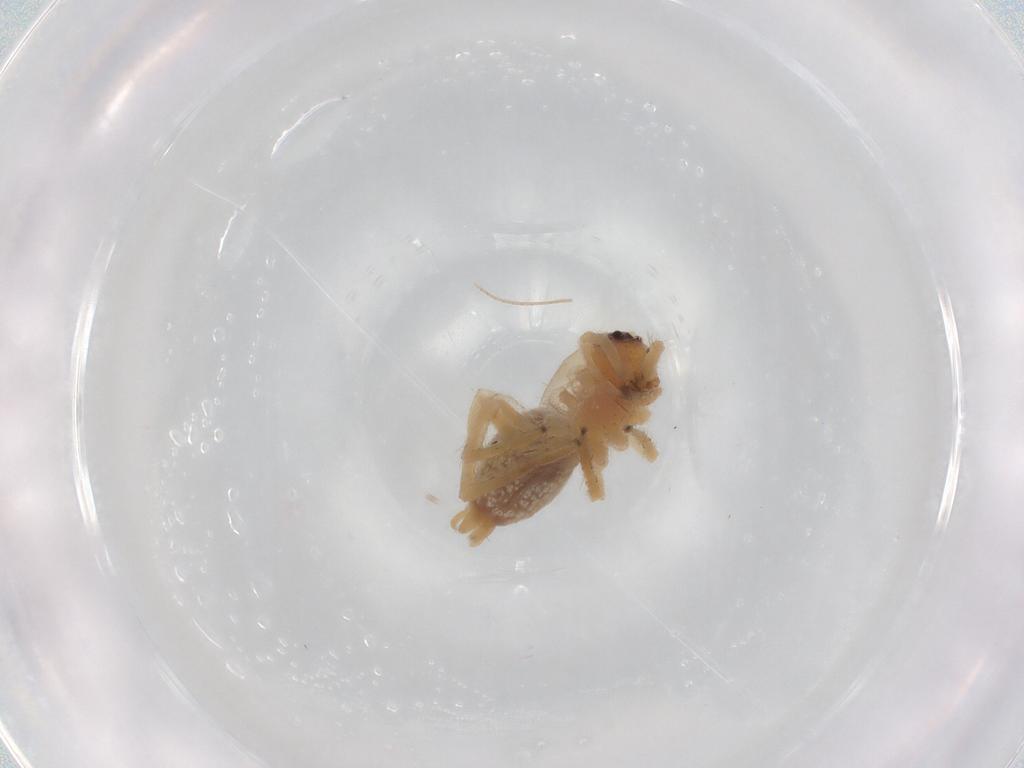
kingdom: Animalia
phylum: Arthropoda
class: Arachnida
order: Araneae
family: Cheiracanthiidae
